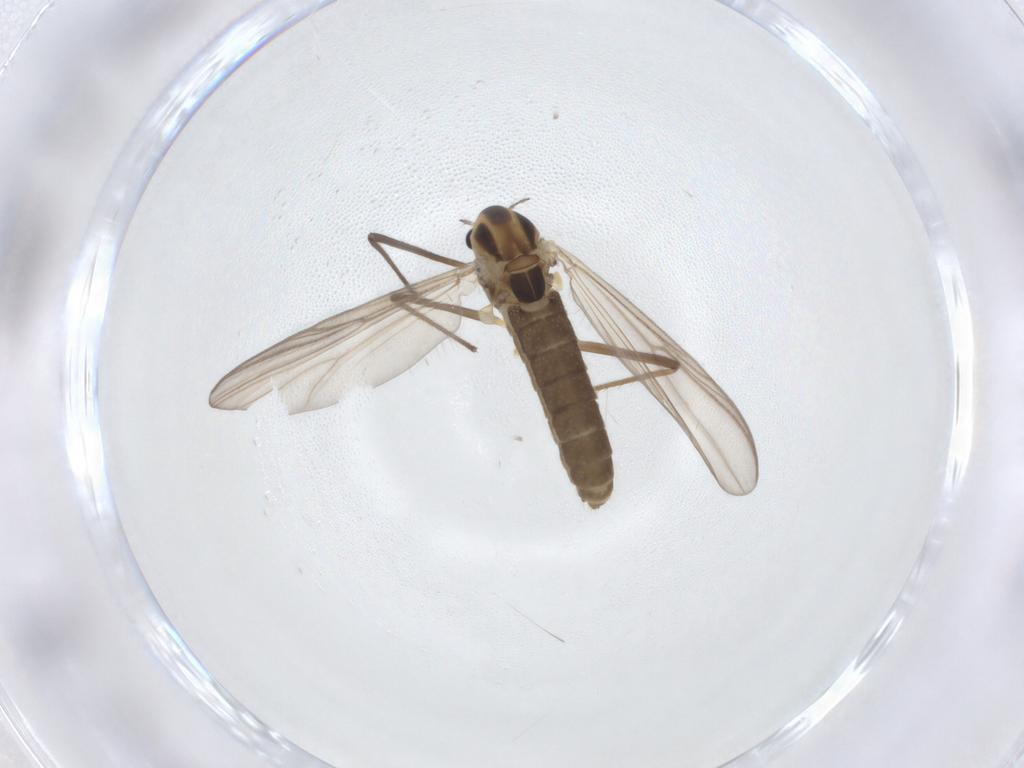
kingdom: Animalia
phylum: Arthropoda
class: Insecta
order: Diptera
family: Chironomidae
